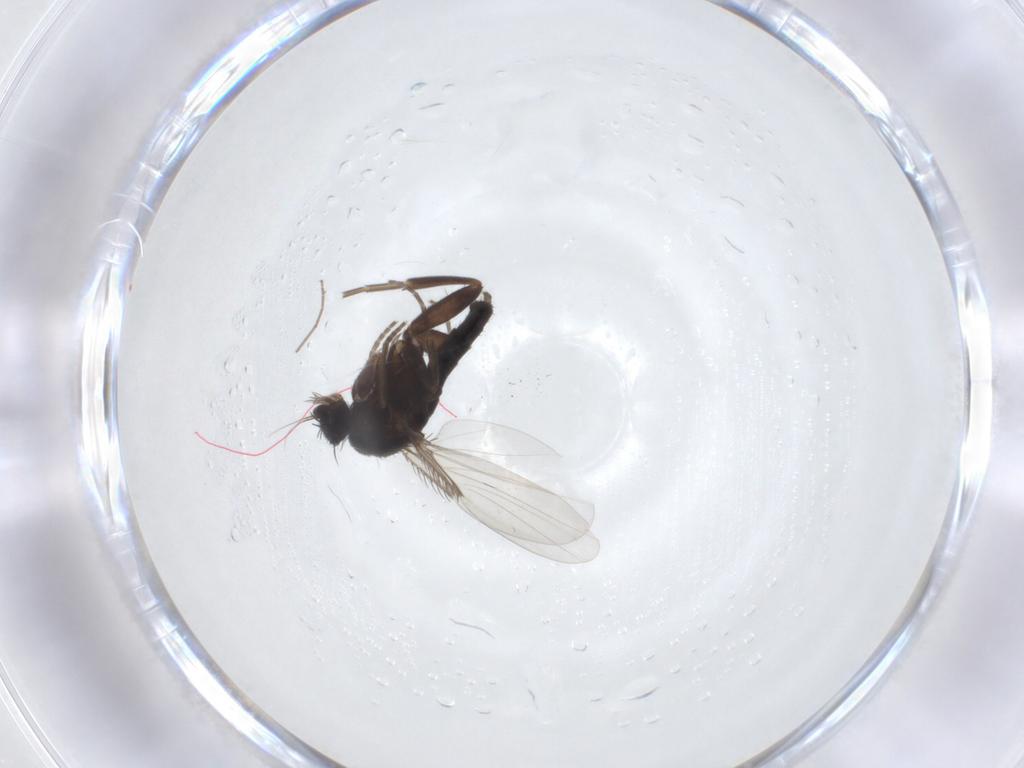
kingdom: Animalia
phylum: Arthropoda
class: Insecta
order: Diptera
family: Phoridae
